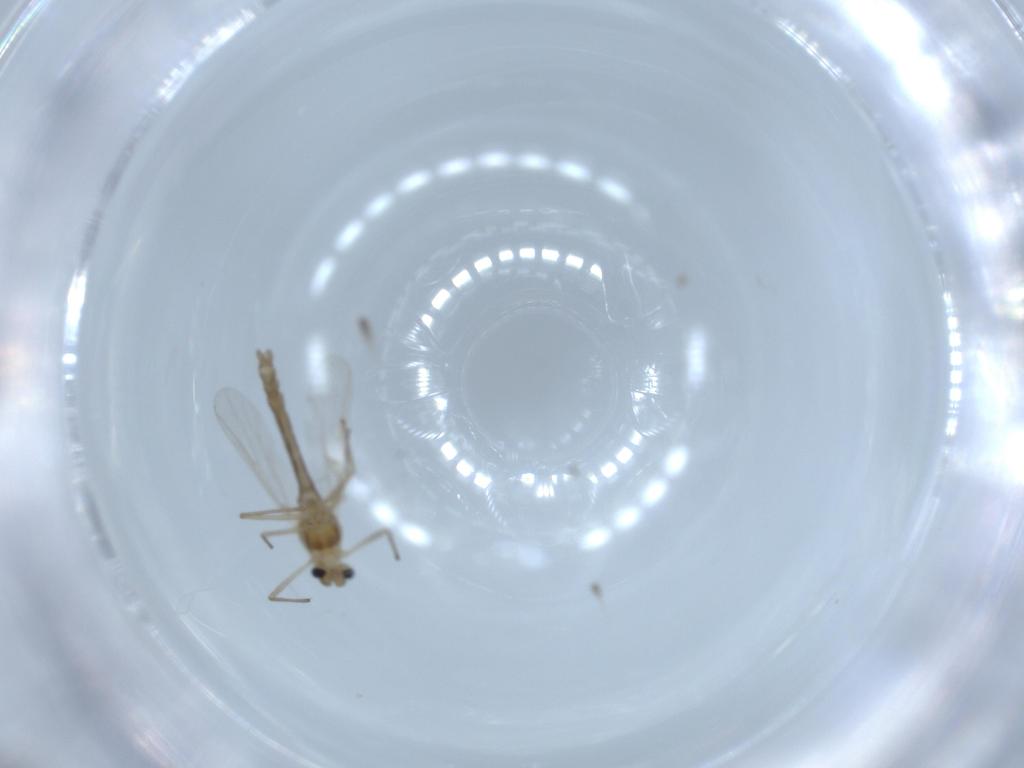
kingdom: Animalia
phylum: Arthropoda
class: Insecta
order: Diptera
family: Chironomidae
